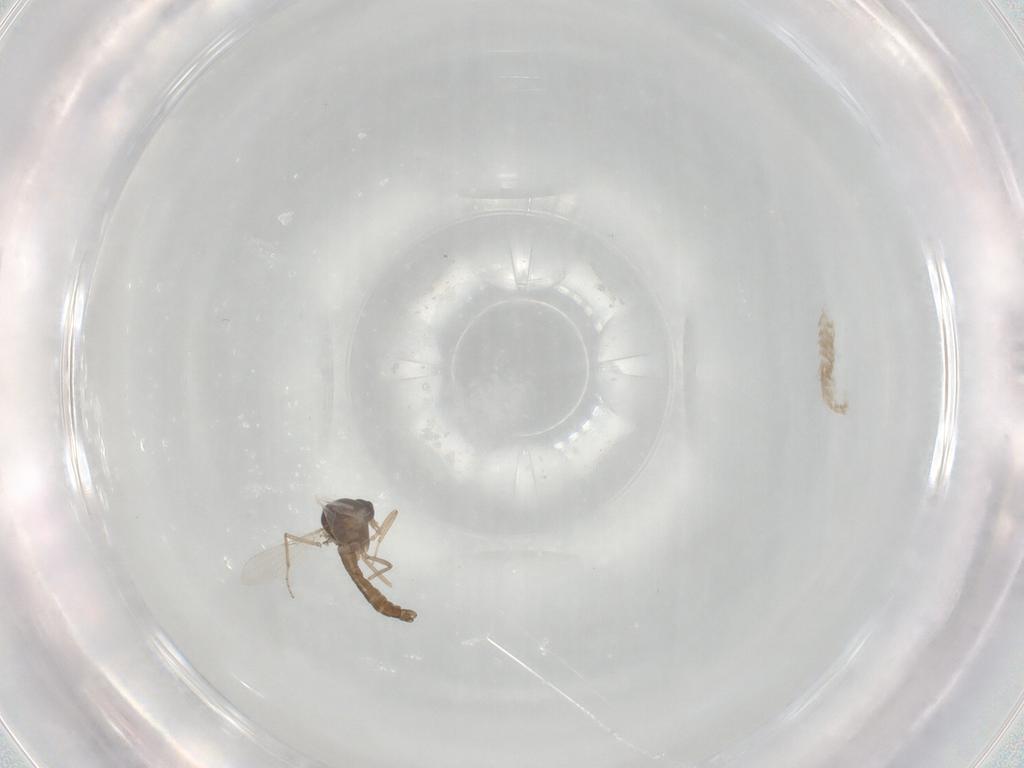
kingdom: Animalia
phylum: Arthropoda
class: Insecta
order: Diptera
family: Ceratopogonidae
